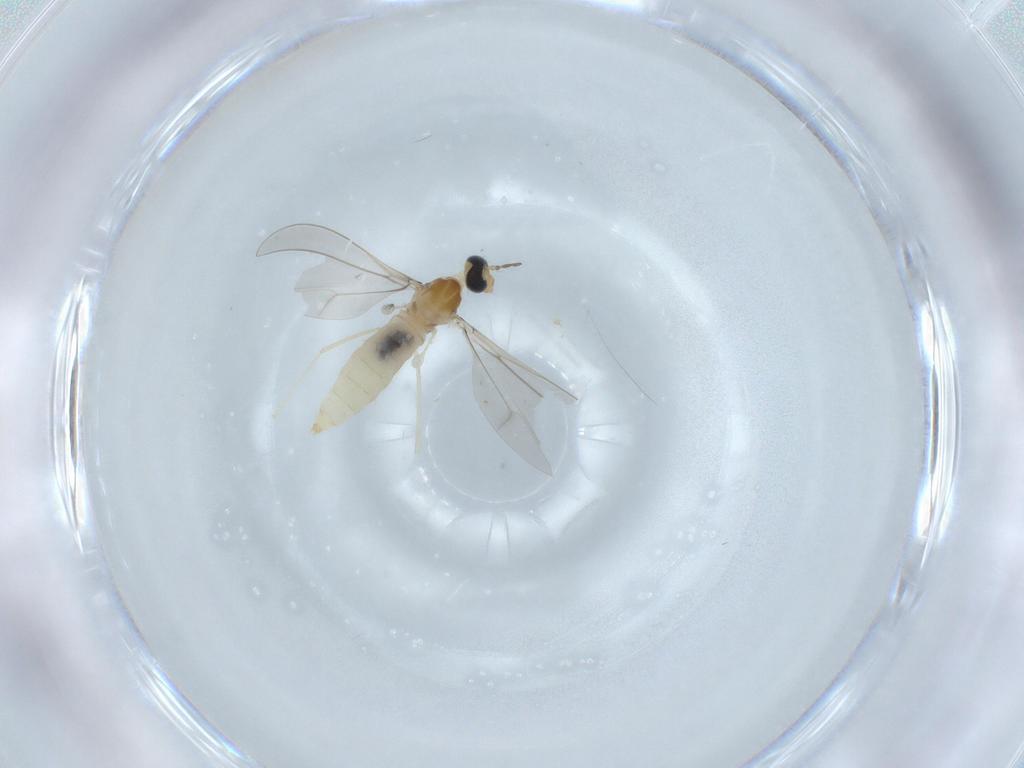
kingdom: Animalia
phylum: Arthropoda
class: Insecta
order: Diptera
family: Cecidomyiidae
